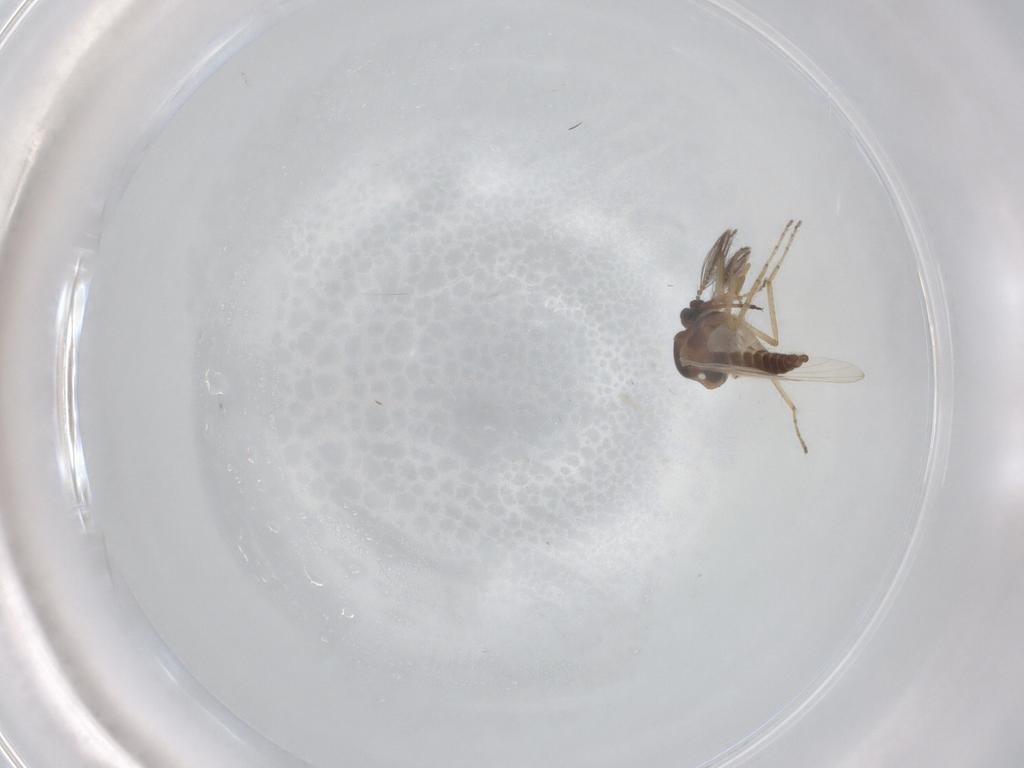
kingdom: Animalia
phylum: Arthropoda
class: Insecta
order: Diptera
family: Ceratopogonidae
